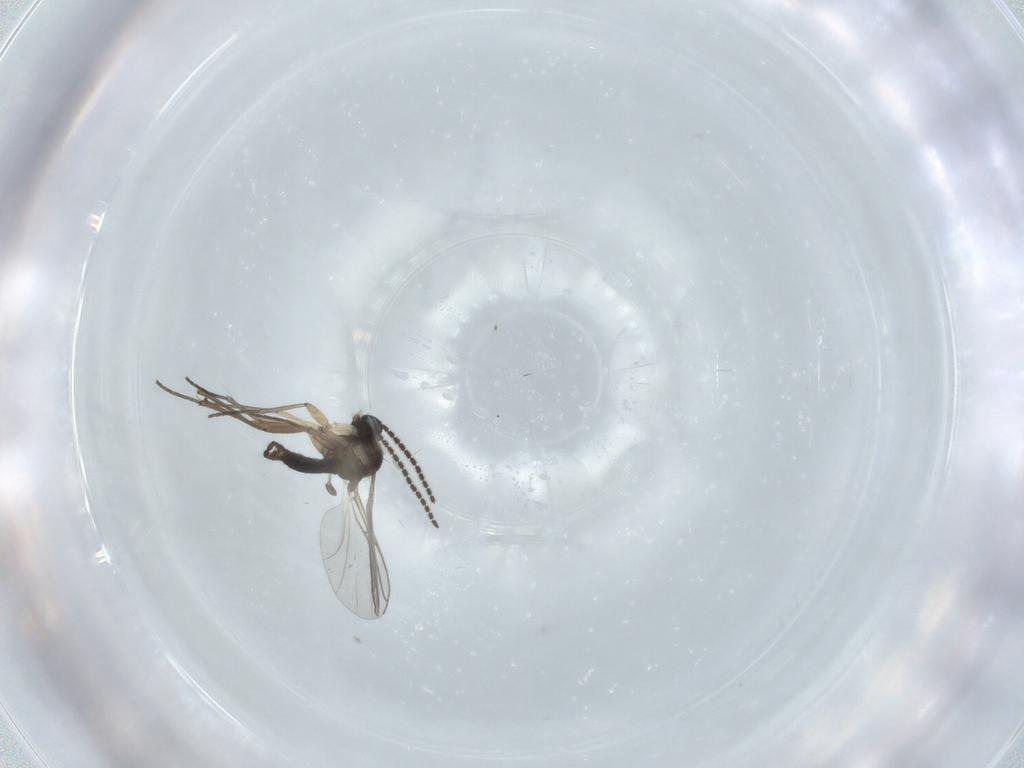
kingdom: Animalia
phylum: Arthropoda
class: Insecta
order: Diptera
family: Sciaridae
